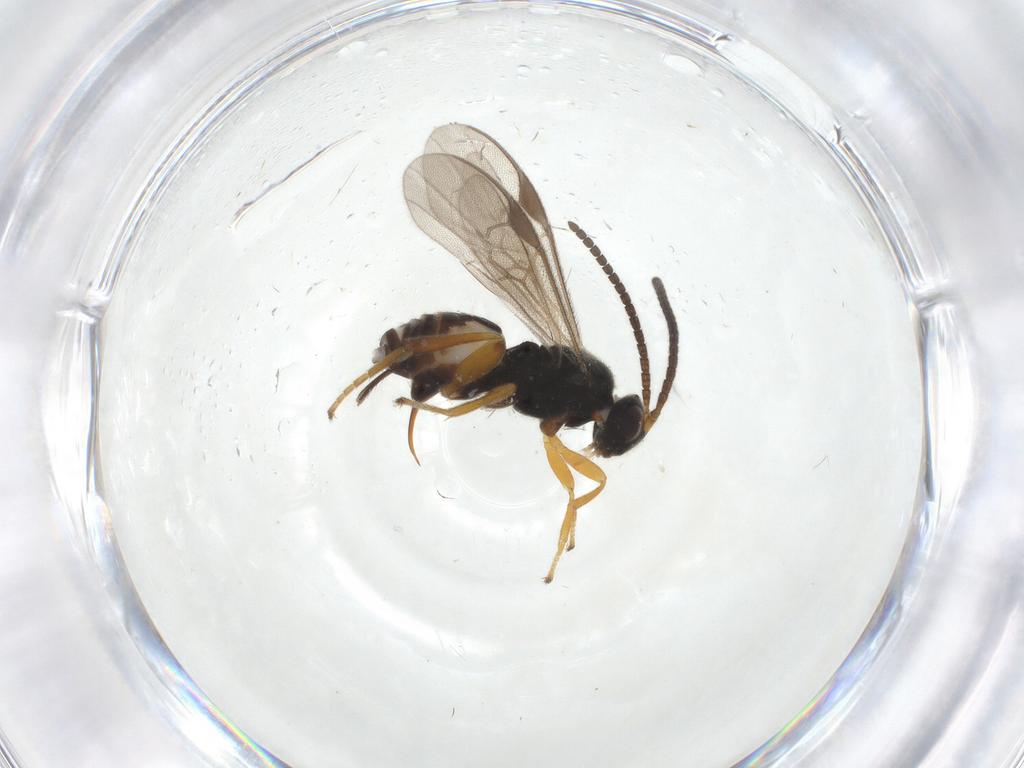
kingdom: Animalia
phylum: Arthropoda
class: Insecta
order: Hymenoptera
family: Braconidae
